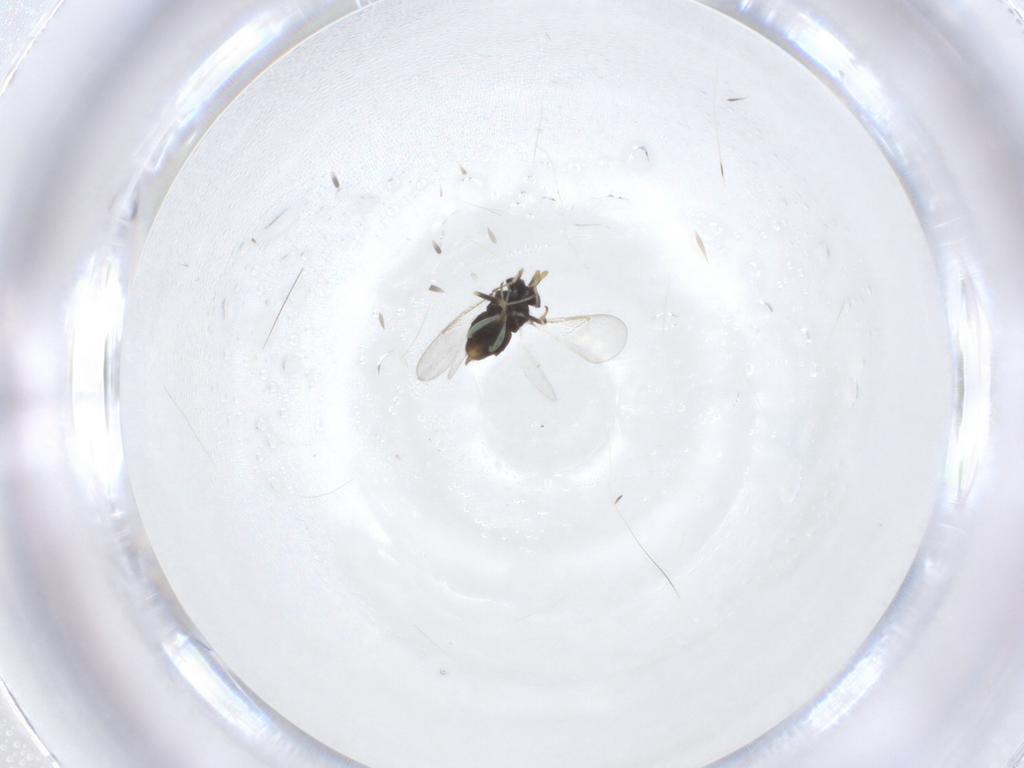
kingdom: Animalia
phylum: Arthropoda
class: Insecta
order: Hymenoptera
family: Aphelinidae
